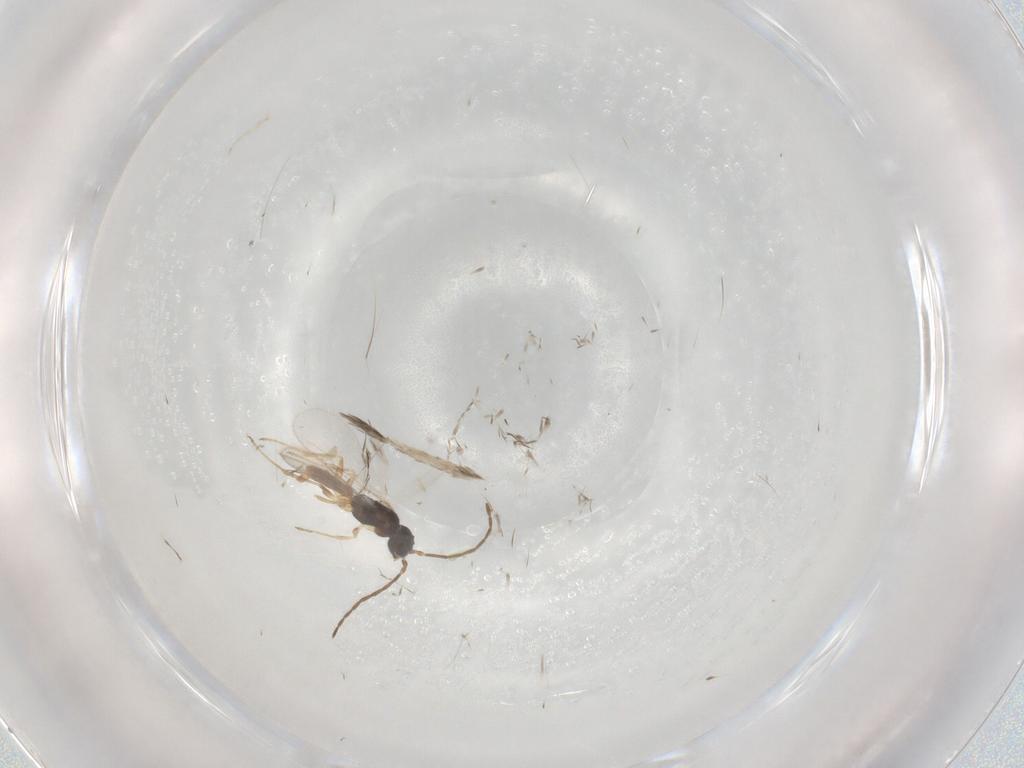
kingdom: Animalia
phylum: Arthropoda
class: Insecta
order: Hymenoptera
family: Dryinidae
